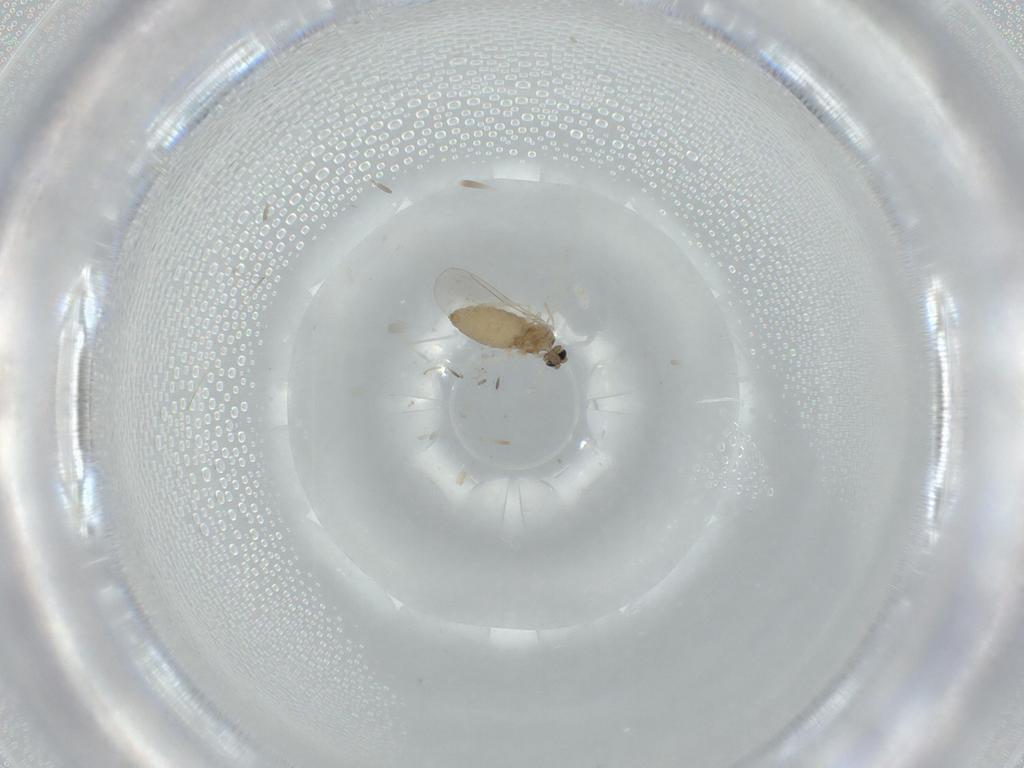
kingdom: Animalia
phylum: Arthropoda
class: Insecta
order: Diptera
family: Cecidomyiidae
